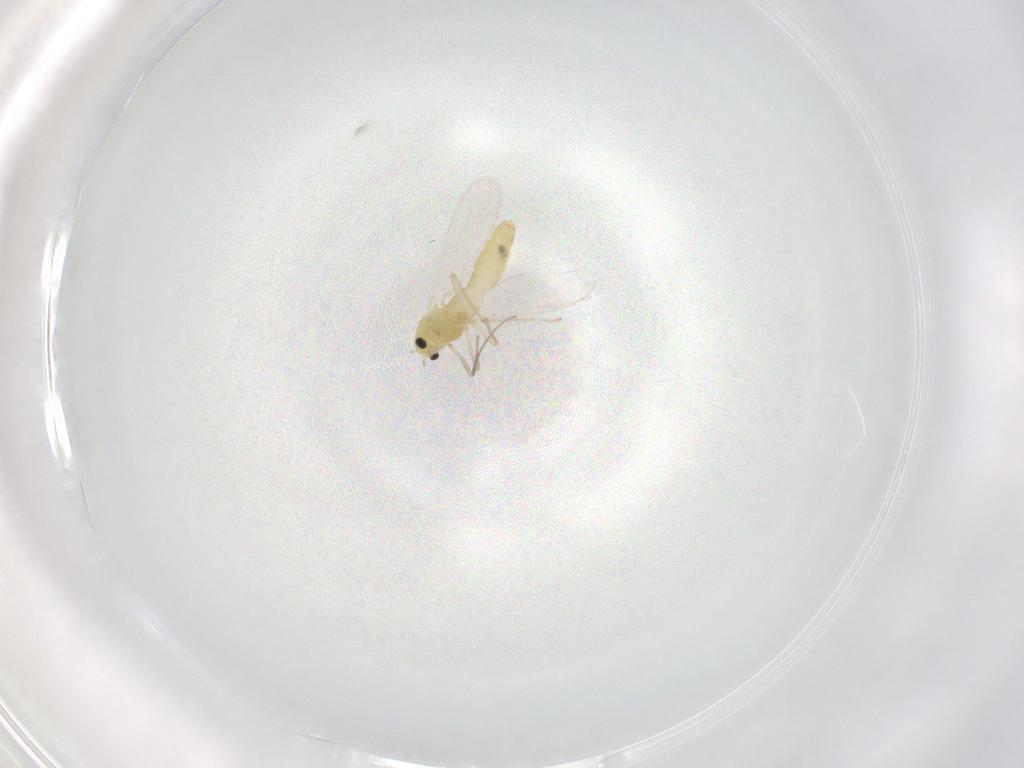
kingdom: Animalia
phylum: Arthropoda
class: Insecta
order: Diptera
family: Chironomidae
